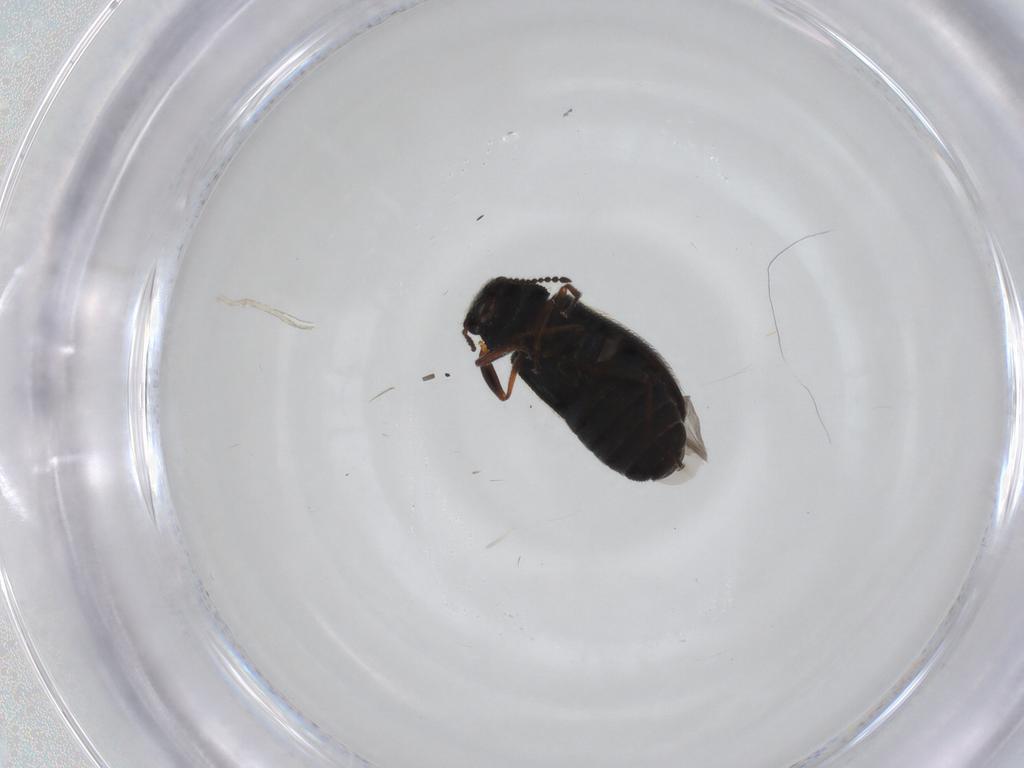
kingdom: Animalia
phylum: Arthropoda
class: Insecta
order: Coleoptera
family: Melyridae
